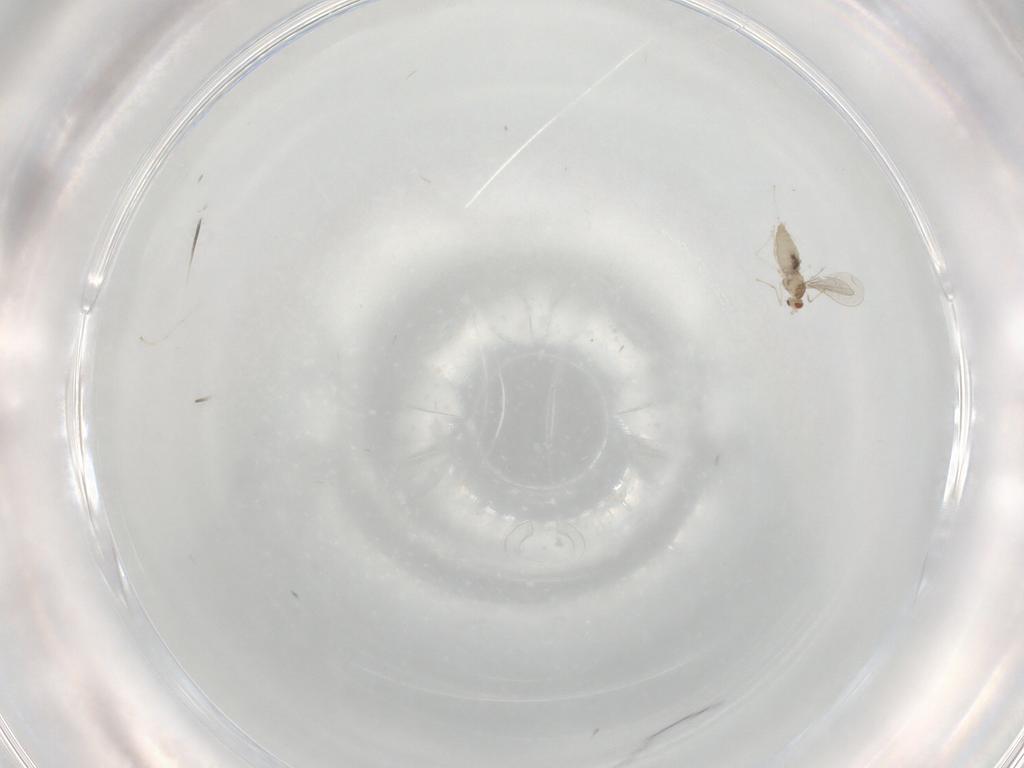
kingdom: Animalia
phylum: Arthropoda
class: Insecta
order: Diptera
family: Cecidomyiidae
